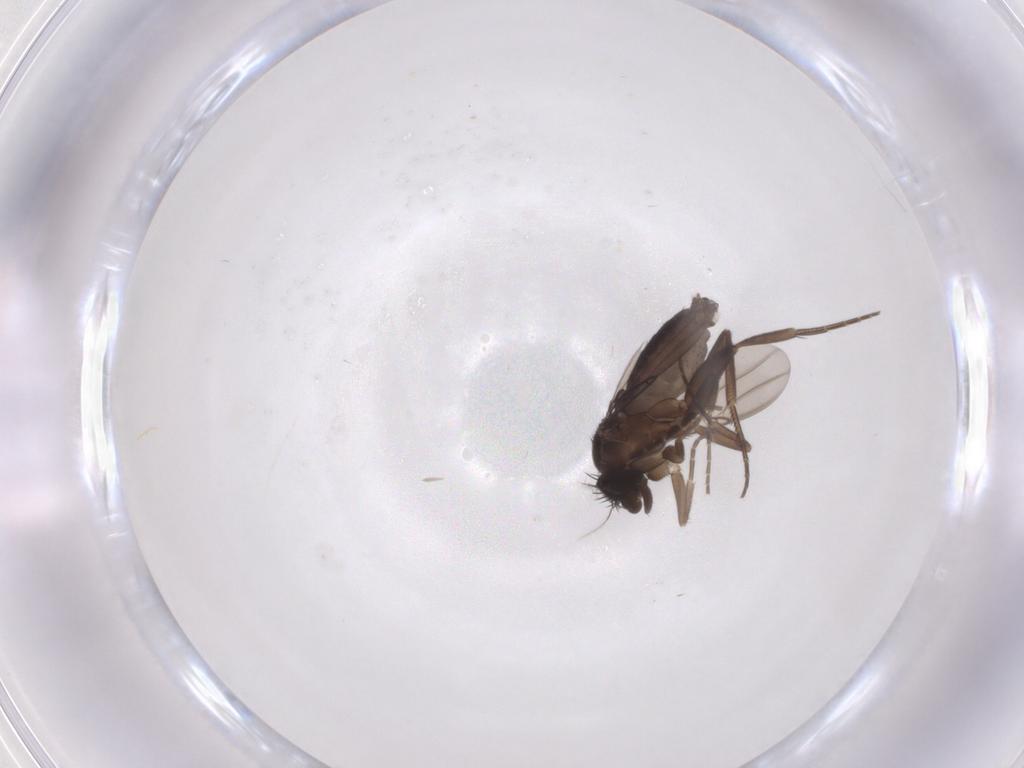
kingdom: Animalia
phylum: Arthropoda
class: Insecta
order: Diptera
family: Phoridae
